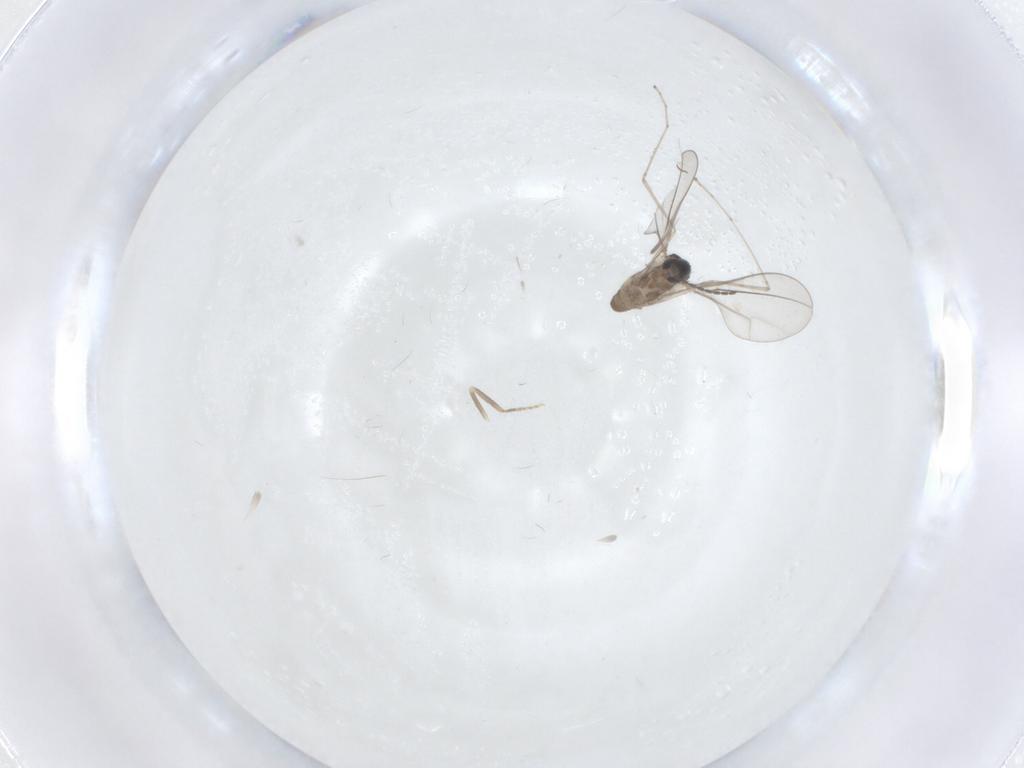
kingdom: Animalia
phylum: Arthropoda
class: Insecta
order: Diptera
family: Cecidomyiidae
